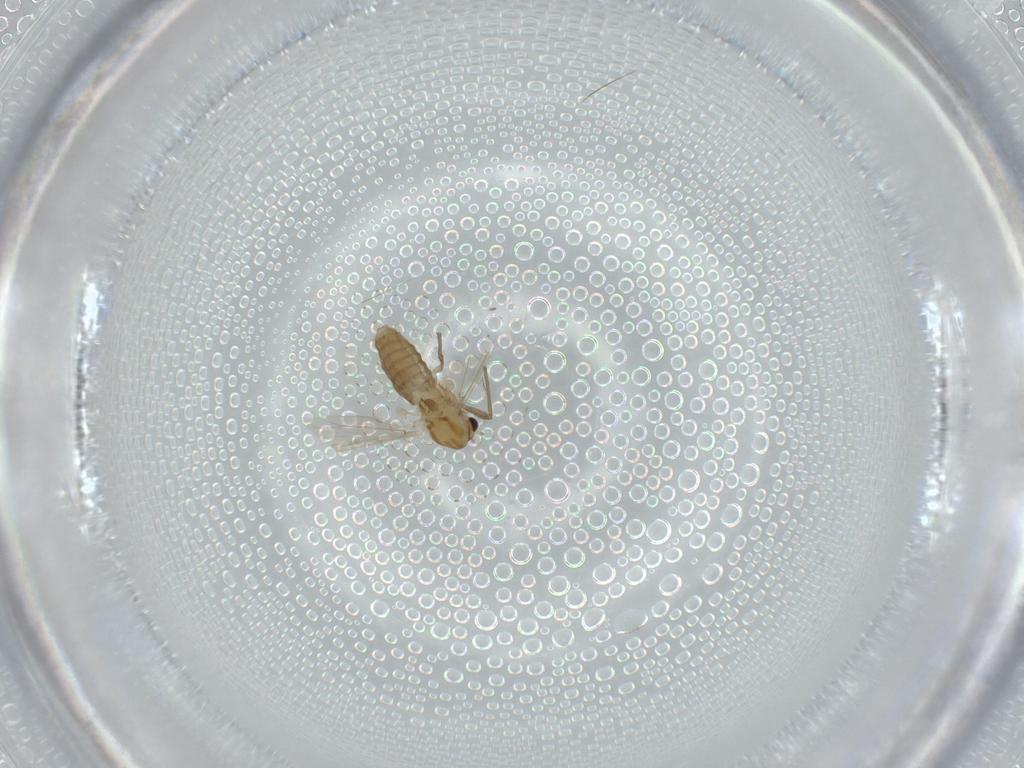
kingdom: Animalia
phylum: Arthropoda
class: Insecta
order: Diptera
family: Chironomidae
